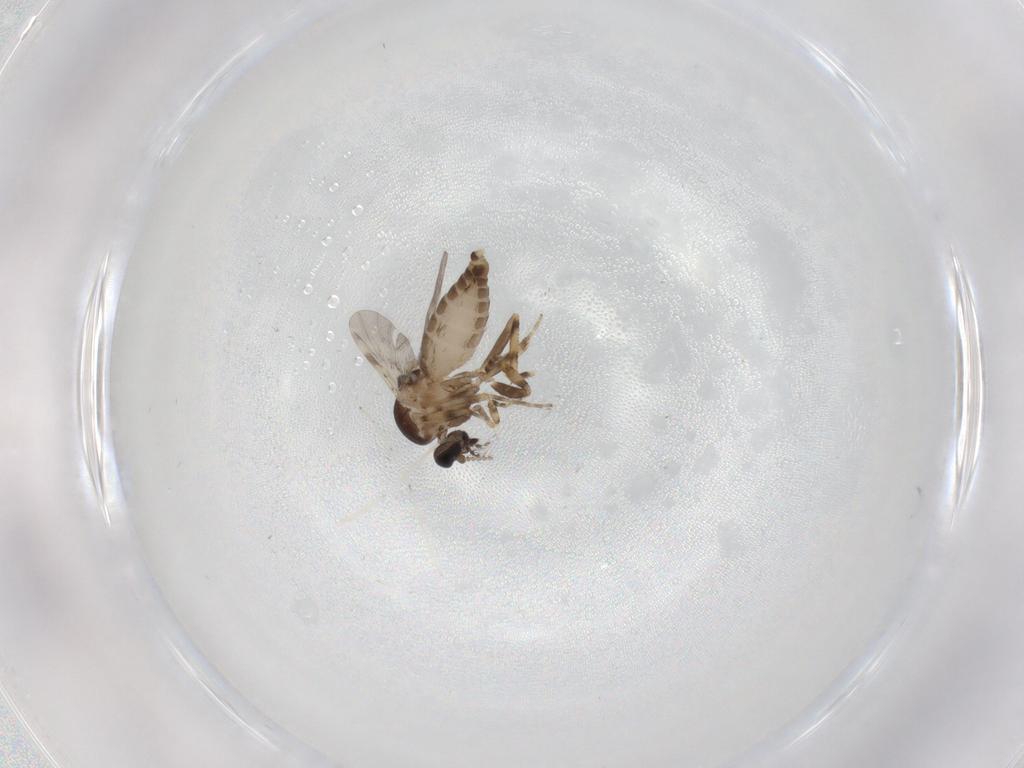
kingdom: Animalia
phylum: Arthropoda
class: Insecta
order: Diptera
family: Ceratopogonidae
